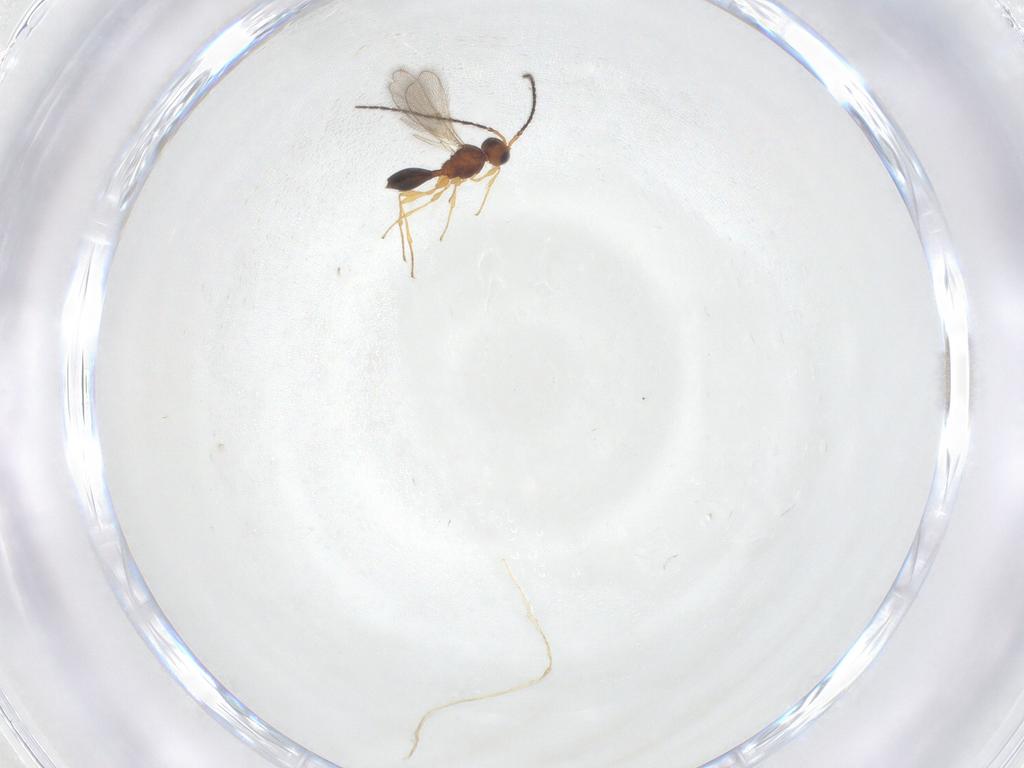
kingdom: Animalia
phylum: Arthropoda
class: Insecta
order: Hymenoptera
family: Diapriidae
